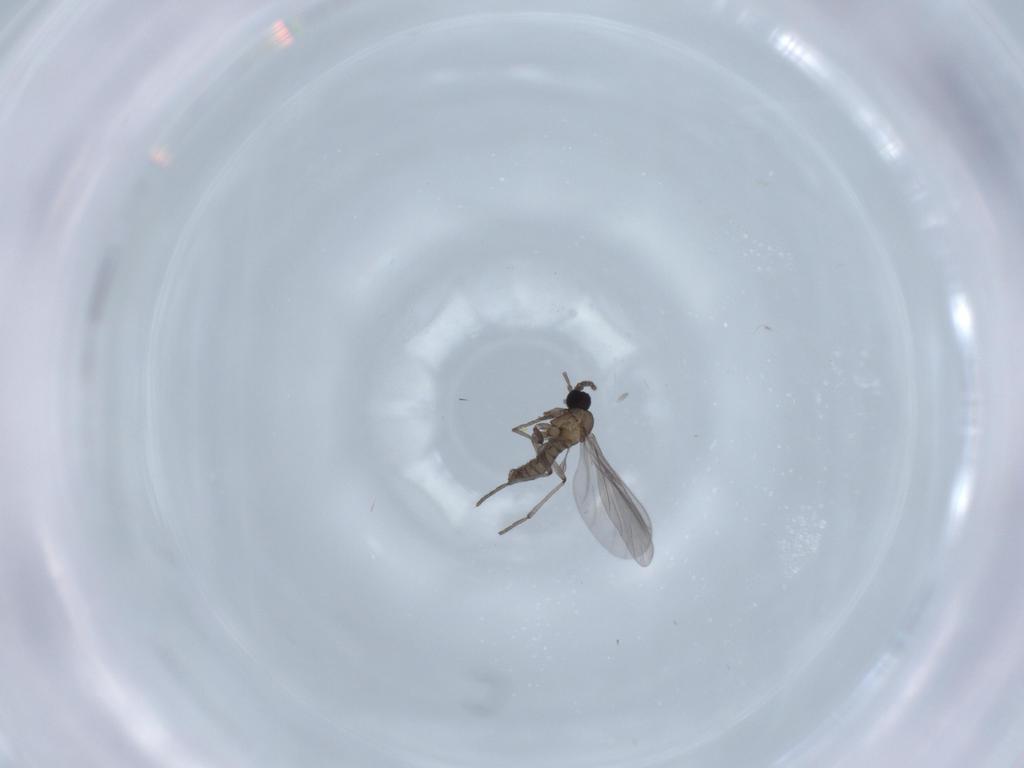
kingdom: Animalia
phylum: Arthropoda
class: Insecta
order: Diptera
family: Sciaridae
